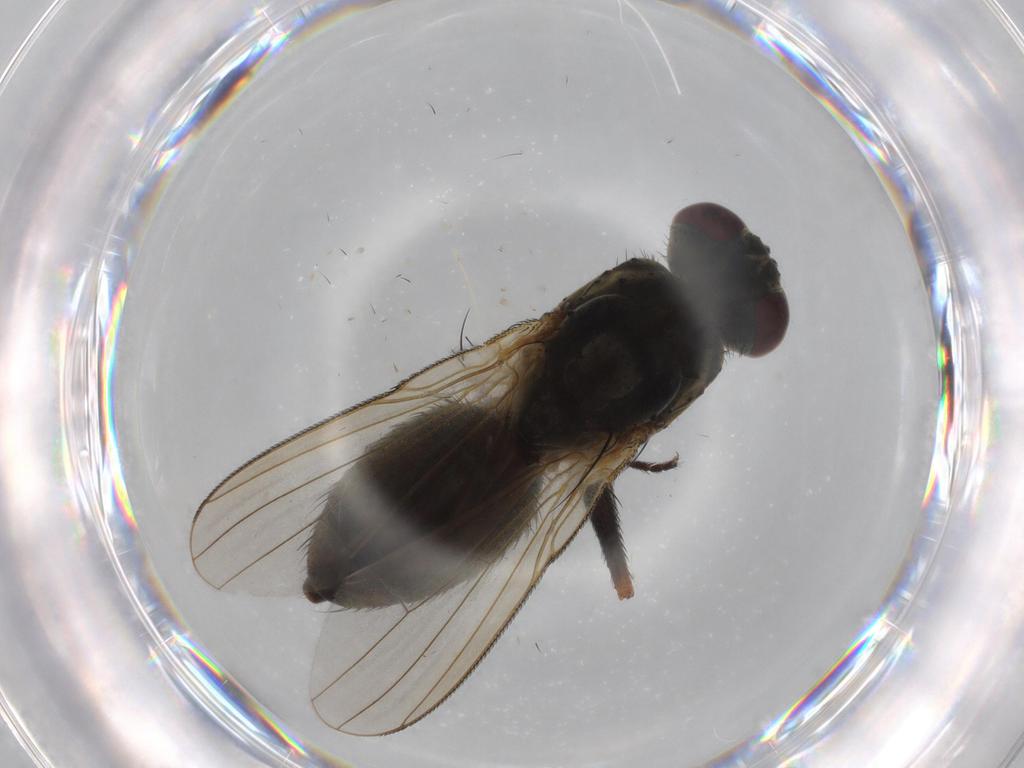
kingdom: Animalia
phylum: Arthropoda
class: Insecta
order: Diptera
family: Muscidae
